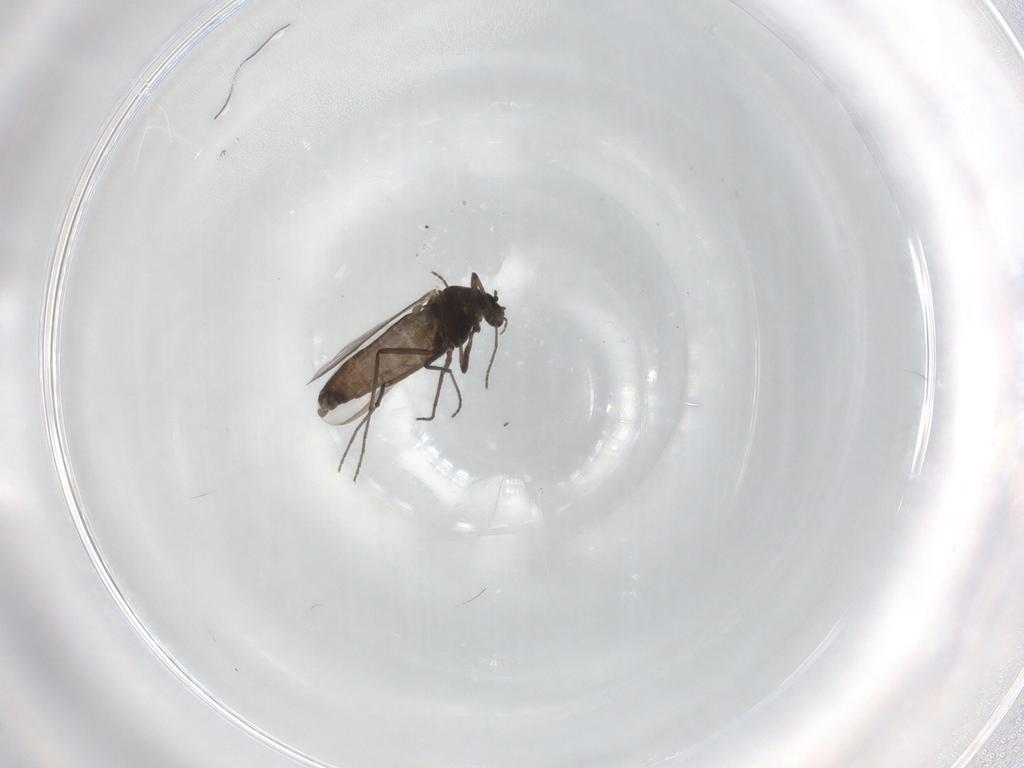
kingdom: Animalia
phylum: Arthropoda
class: Insecta
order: Diptera
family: Chironomidae
